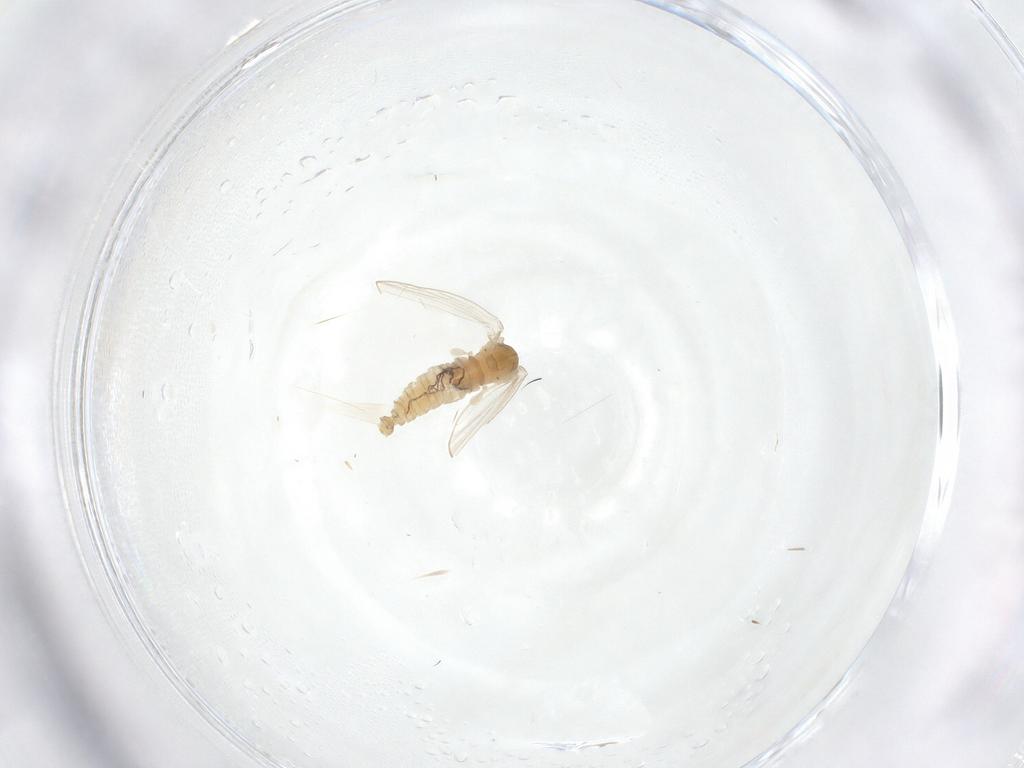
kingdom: Animalia
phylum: Arthropoda
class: Insecta
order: Diptera
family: Psychodidae
